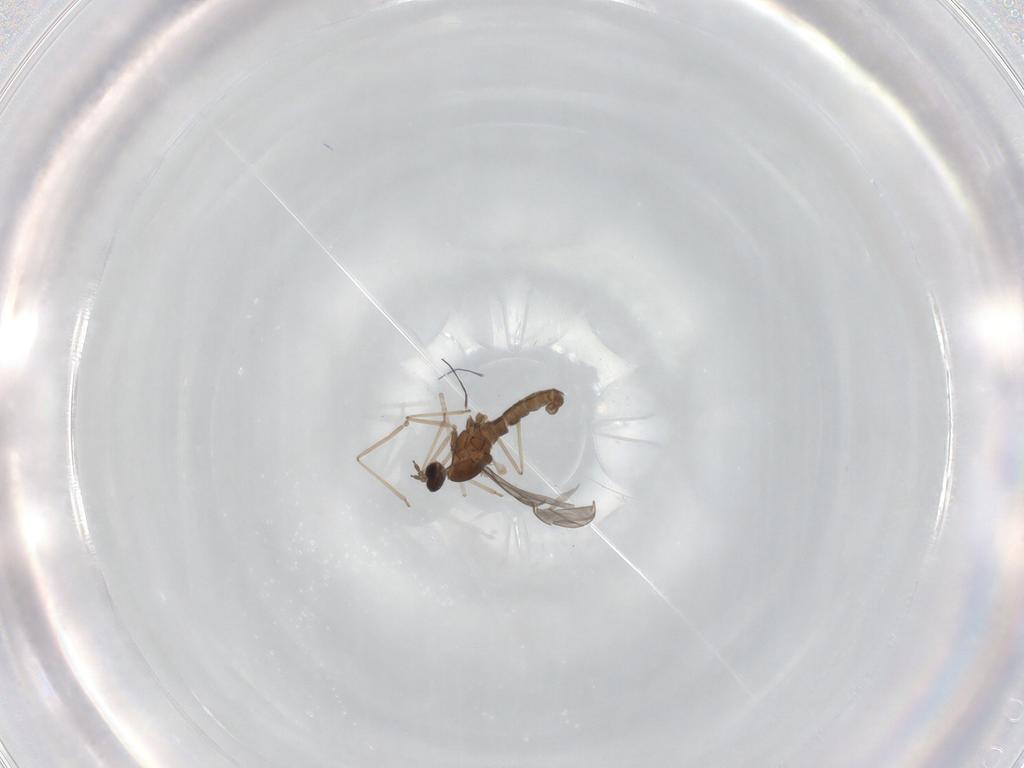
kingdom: Animalia
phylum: Arthropoda
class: Insecta
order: Diptera
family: Cecidomyiidae
